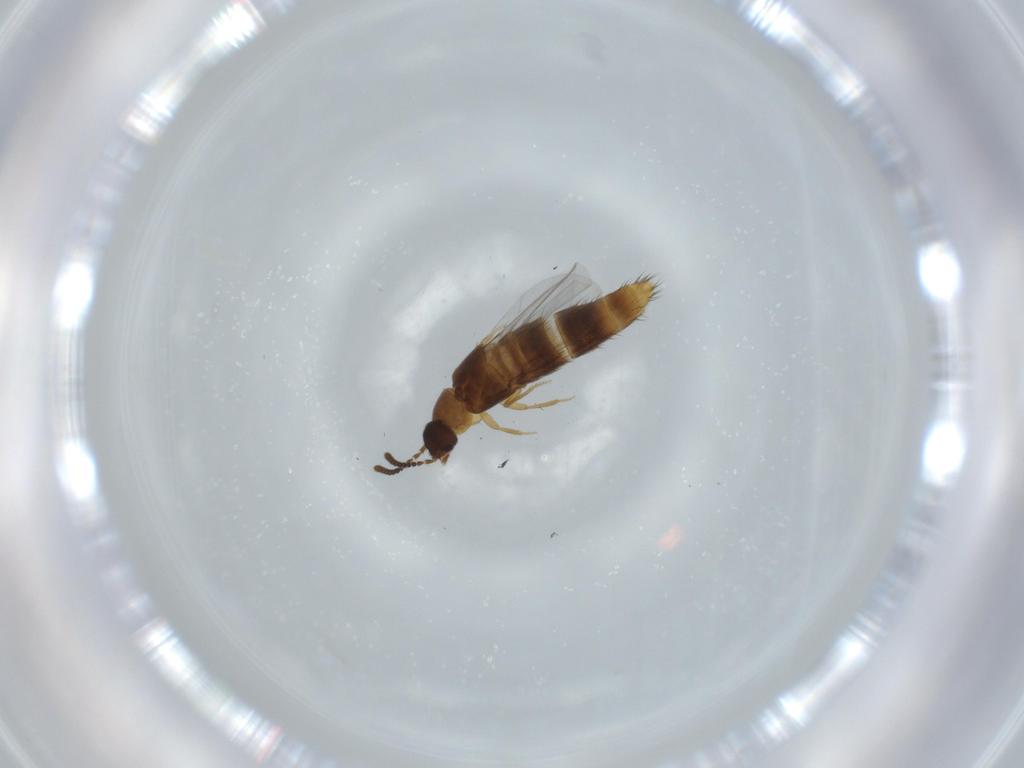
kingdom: Animalia
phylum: Arthropoda
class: Insecta
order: Coleoptera
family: Staphylinidae
